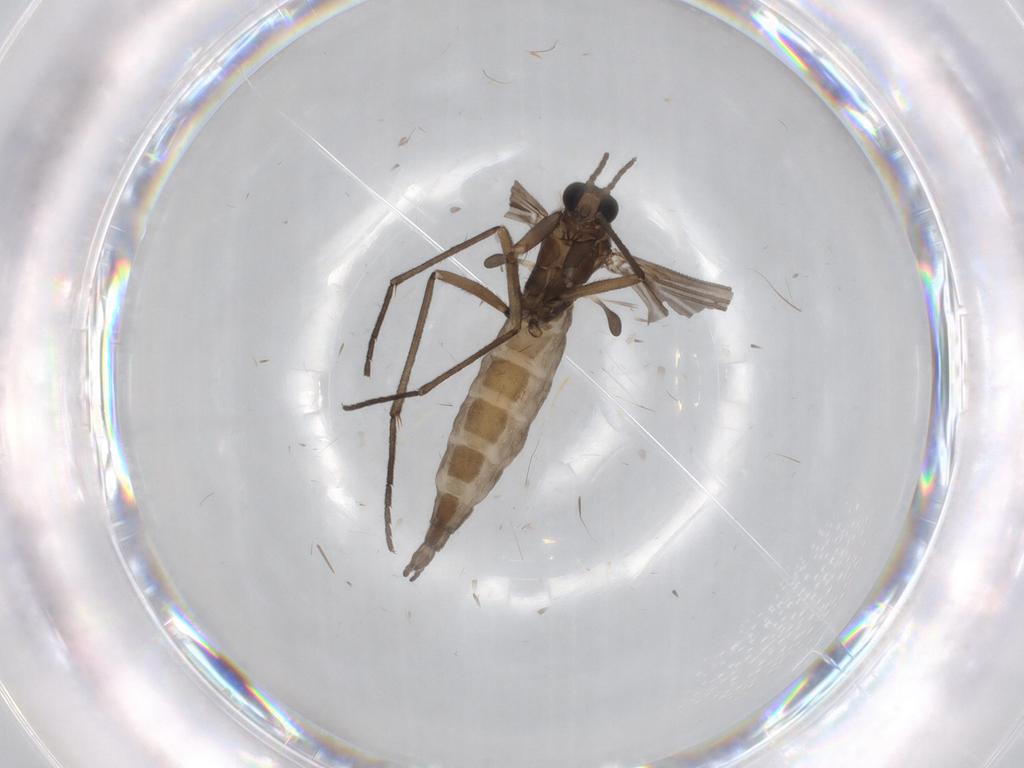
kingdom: Animalia
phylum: Arthropoda
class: Insecta
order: Diptera
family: Sciaridae
